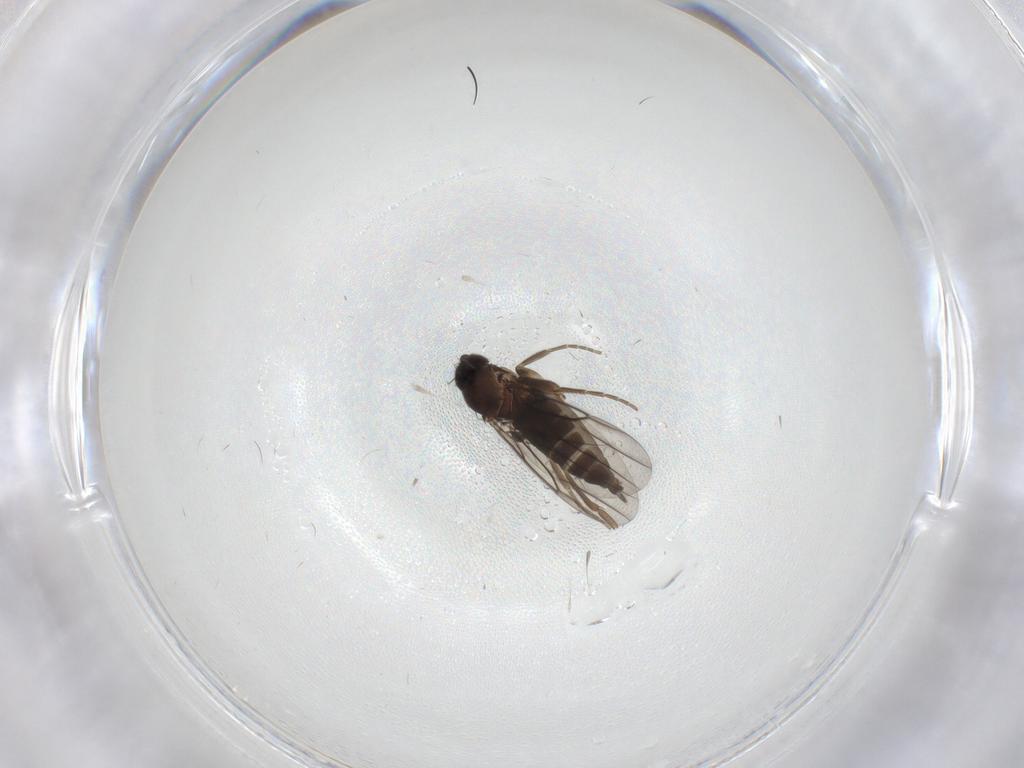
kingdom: Animalia
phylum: Arthropoda
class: Insecta
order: Diptera
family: Phoridae
